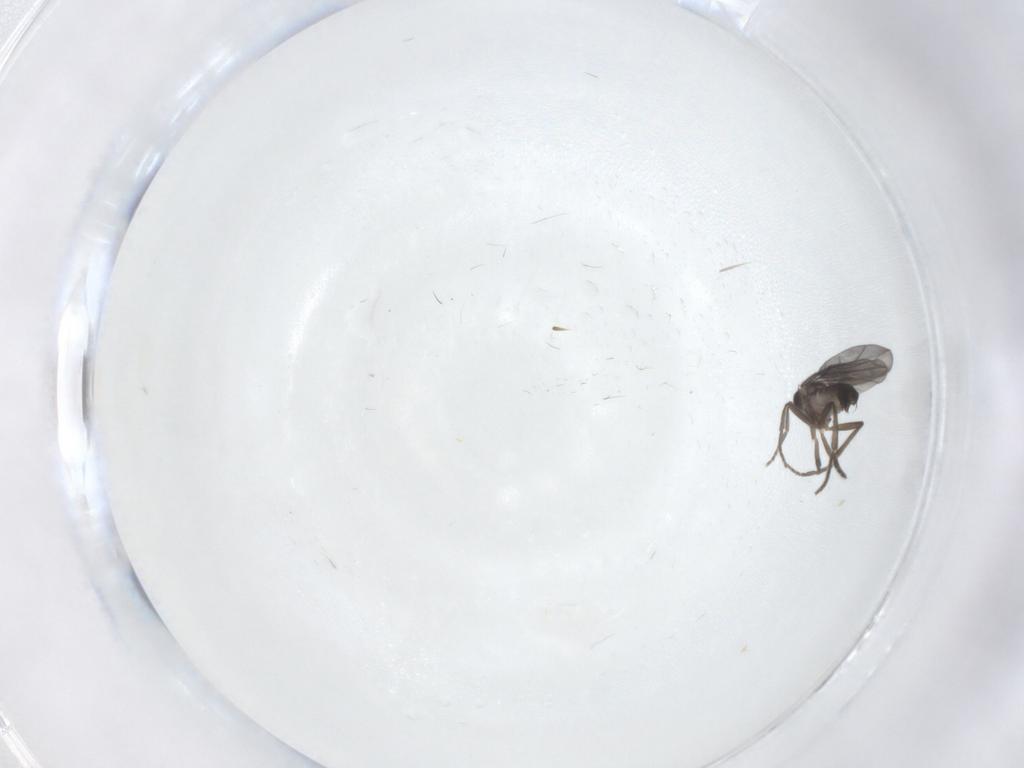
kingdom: Animalia
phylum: Arthropoda
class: Insecta
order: Diptera
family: Phoridae
